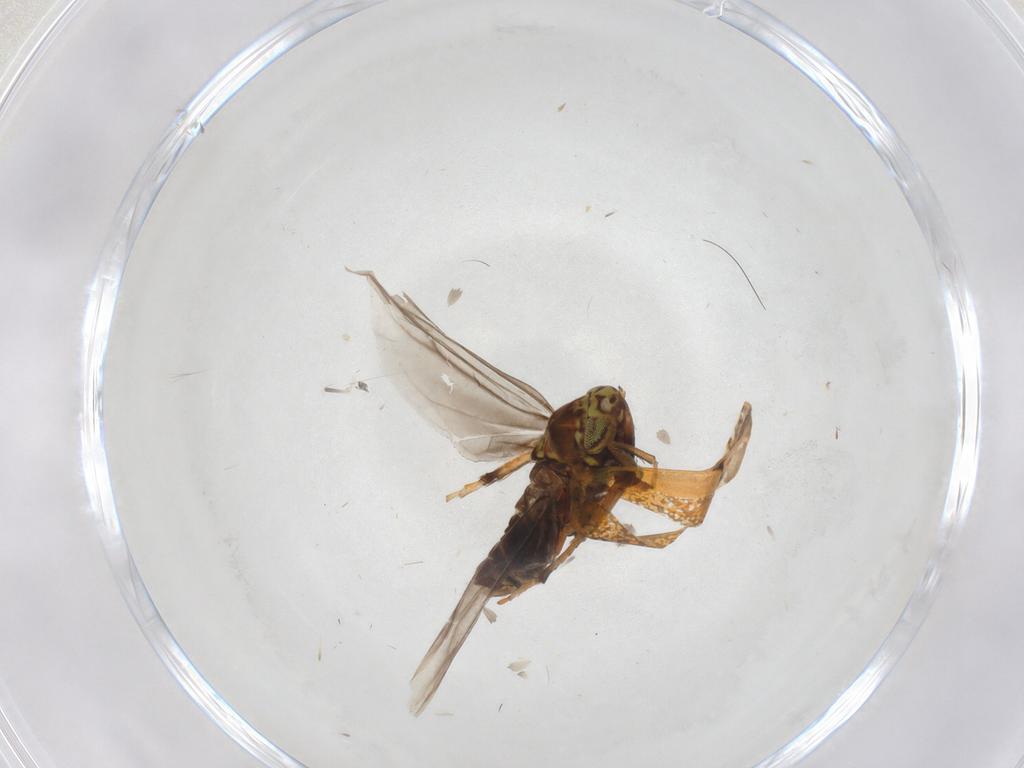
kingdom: Animalia
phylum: Arthropoda
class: Insecta
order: Hemiptera
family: Cicadellidae
